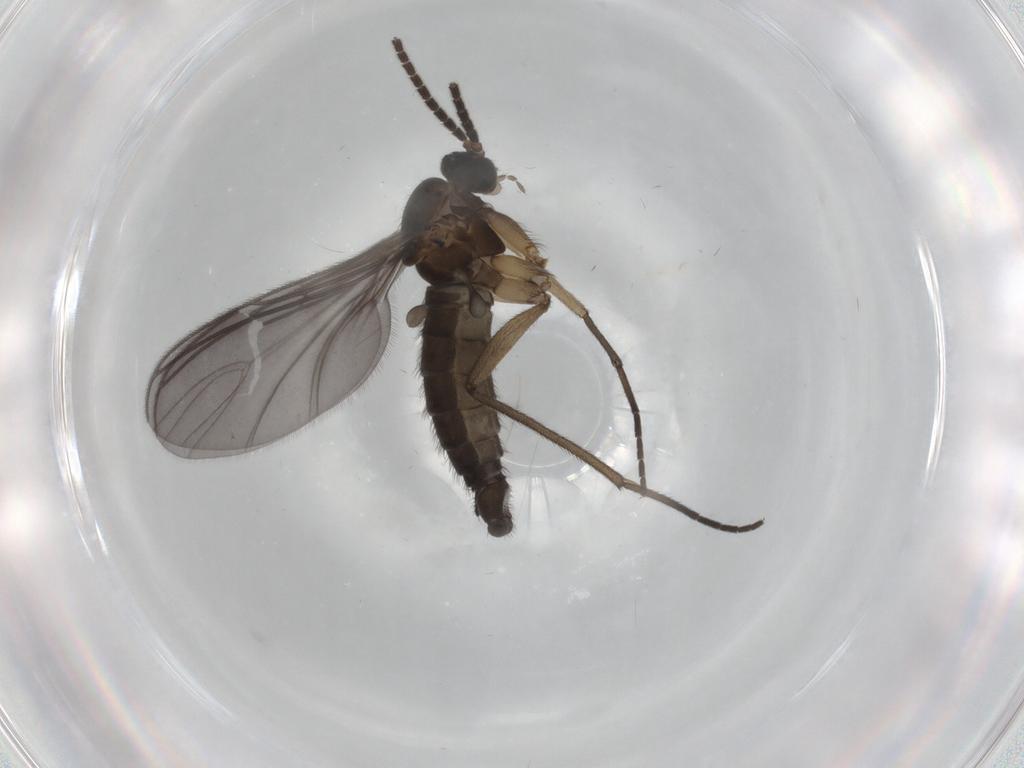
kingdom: Animalia
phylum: Arthropoda
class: Insecta
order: Diptera
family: Sciaridae
